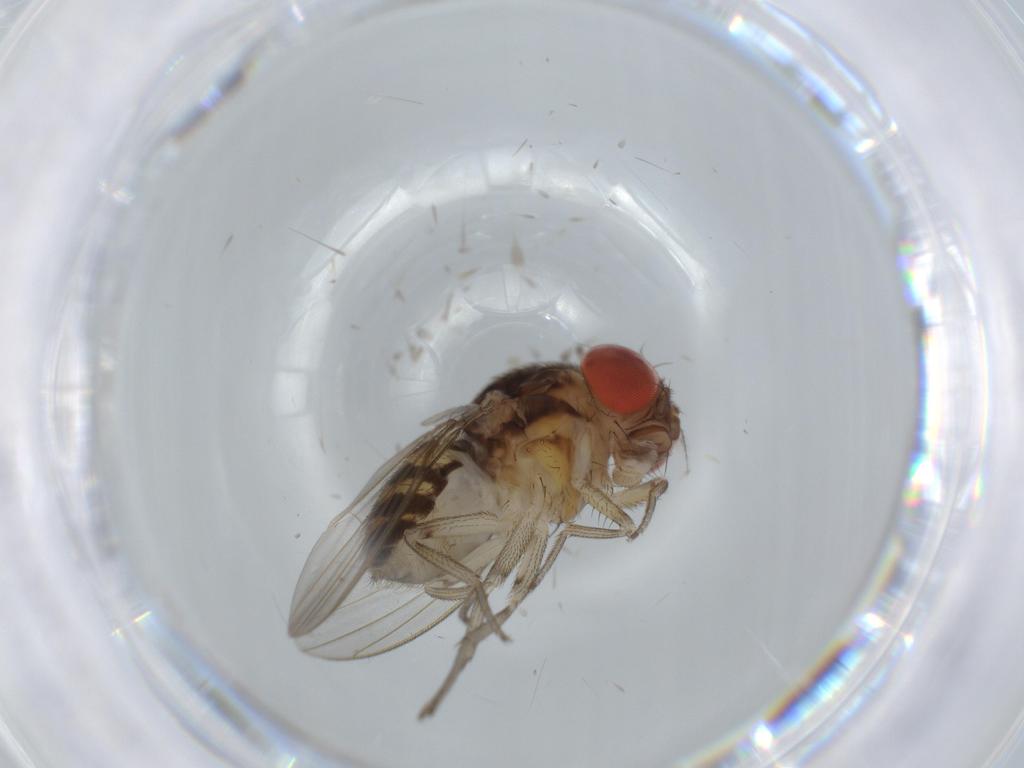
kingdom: Animalia
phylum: Arthropoda
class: Insecta
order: Diptera
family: Drosophilidae
